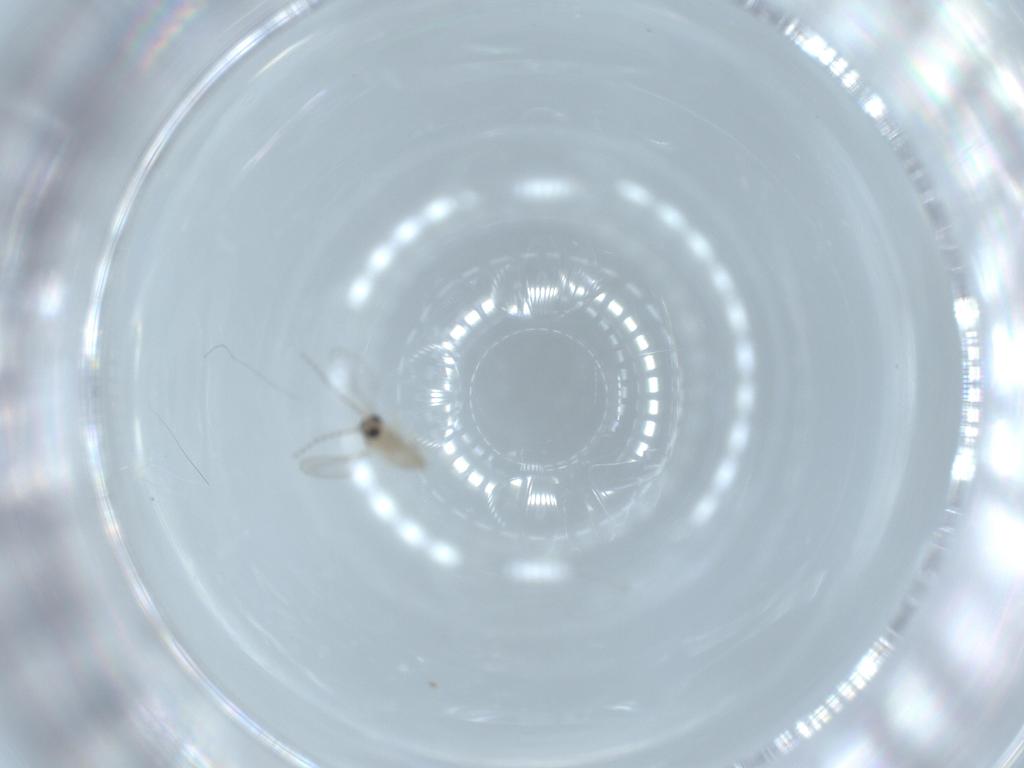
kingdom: Animalia
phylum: Arthropoda
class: Insecta
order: Diptera
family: Cecidomyiidae
